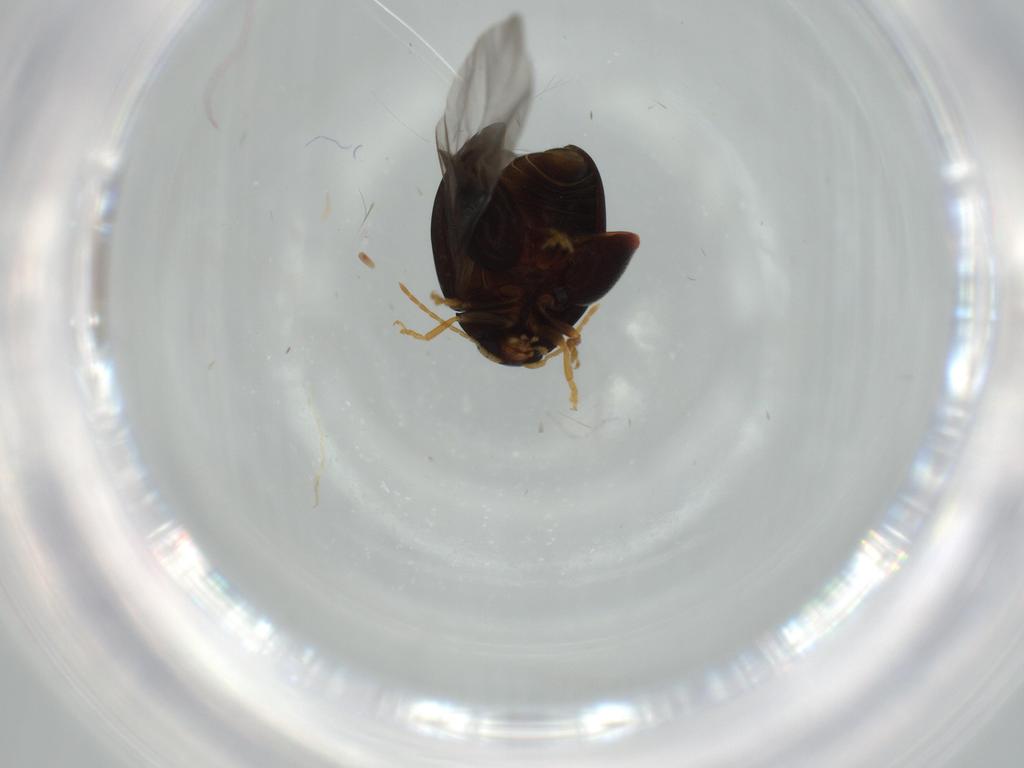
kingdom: Animalia
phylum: Arthropoda
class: Insecta
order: Coleoptera
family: Chrysomelidae
